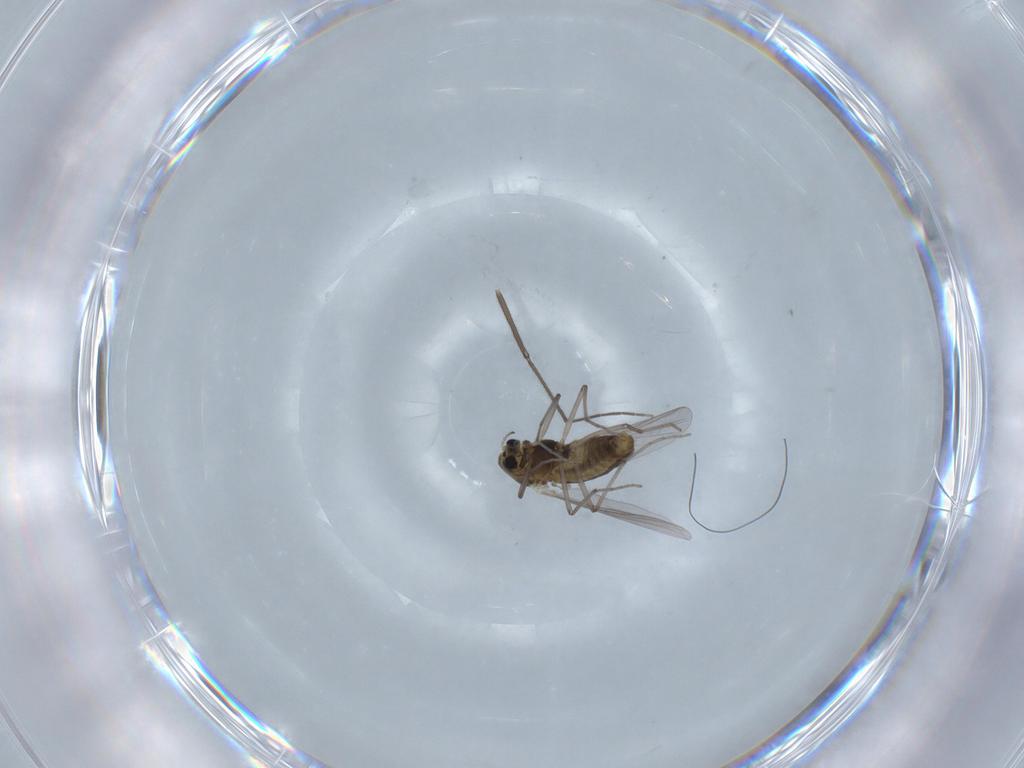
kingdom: Animalia
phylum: Arthropoda
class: Insecta
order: Diptera
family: Chironomidae
